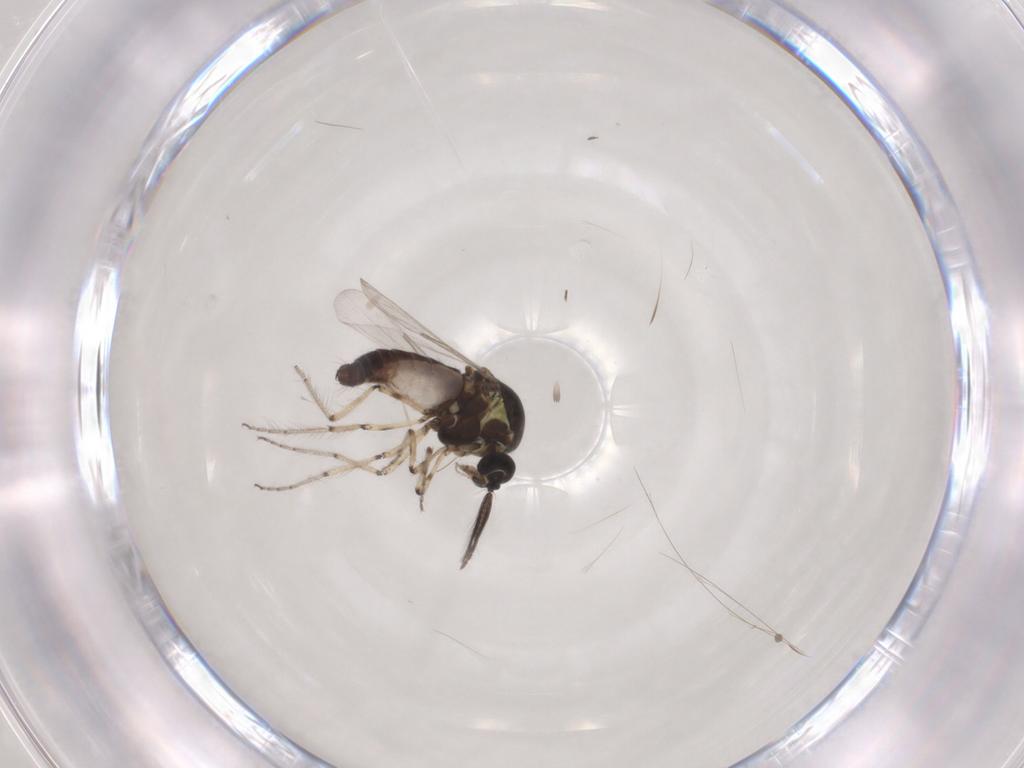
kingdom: Animalia
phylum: Arthropoda
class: Insecta
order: Diptera
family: Ceratopogonidae
